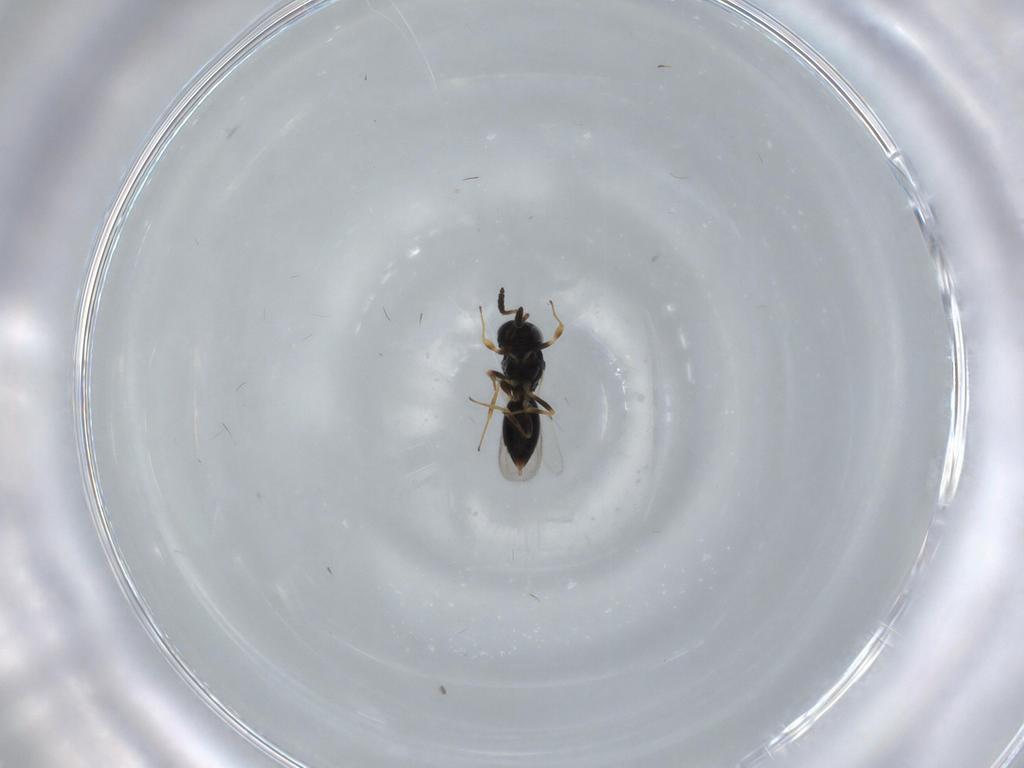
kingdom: Animalia
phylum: Arthropoda
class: Insecta
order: Hymenoptera
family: Scelionidae
